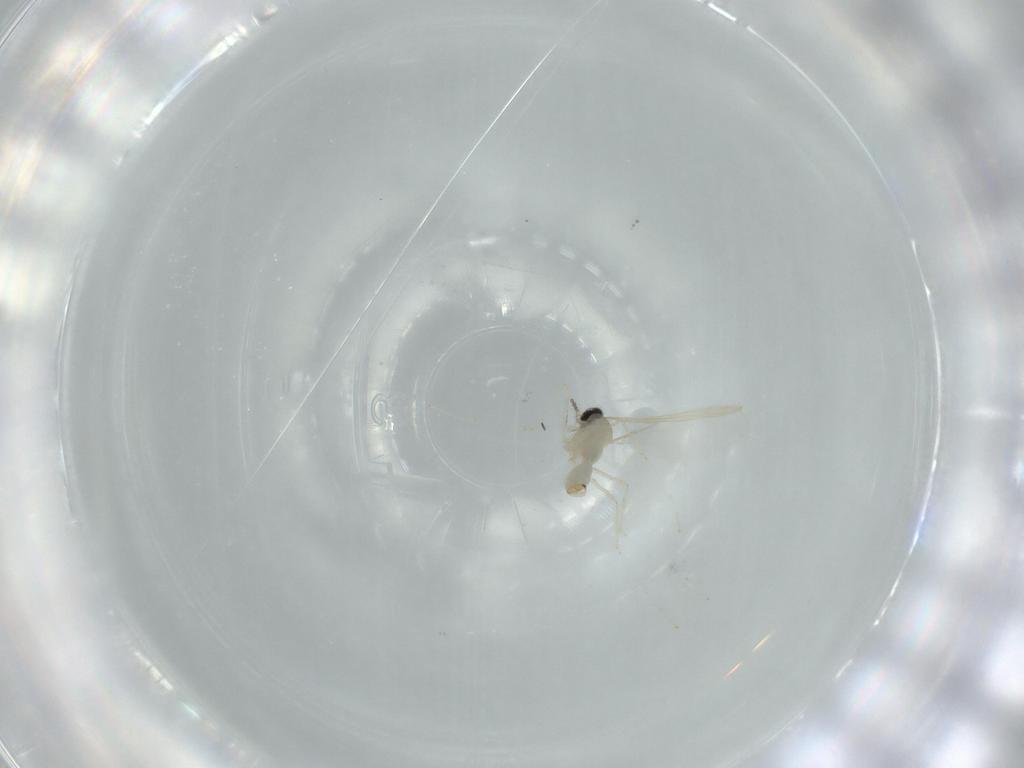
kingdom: Animalia
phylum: Arthropoda
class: Insecta
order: Diptera
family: Cecidomyiidae
